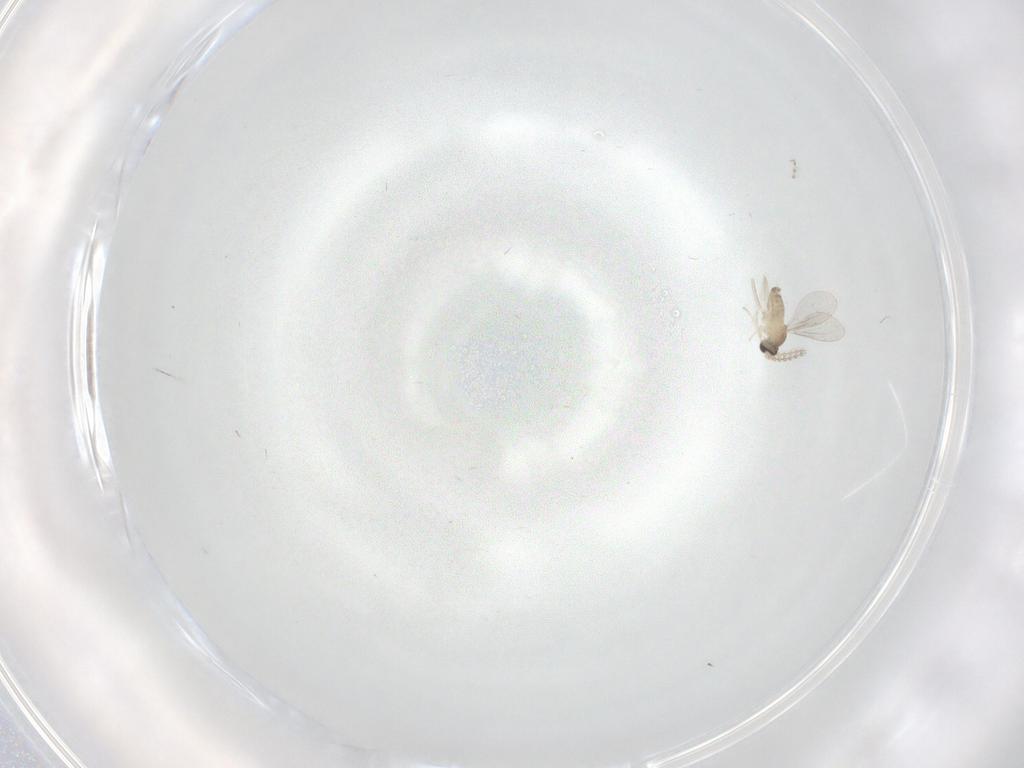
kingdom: Animalia
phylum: Arthropoda
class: Insecta
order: Diptera
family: Cecidomyiidae
